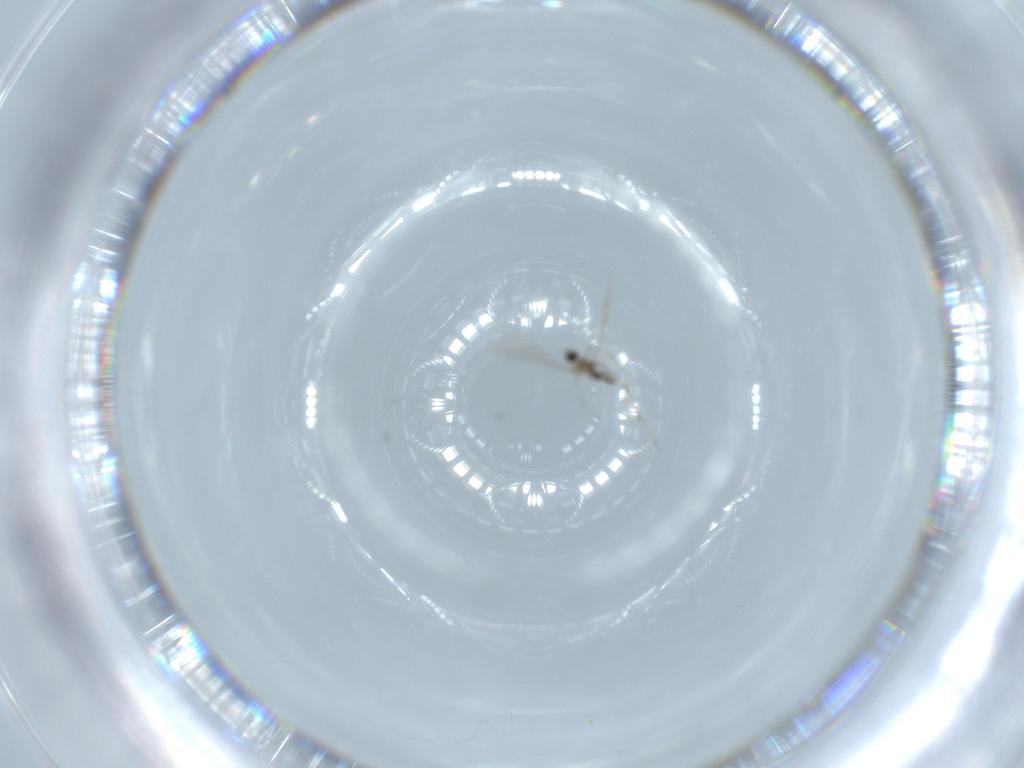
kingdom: Animalia
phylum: Arthropoda
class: Insecta
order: Diptera
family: Cecidomyiidae
